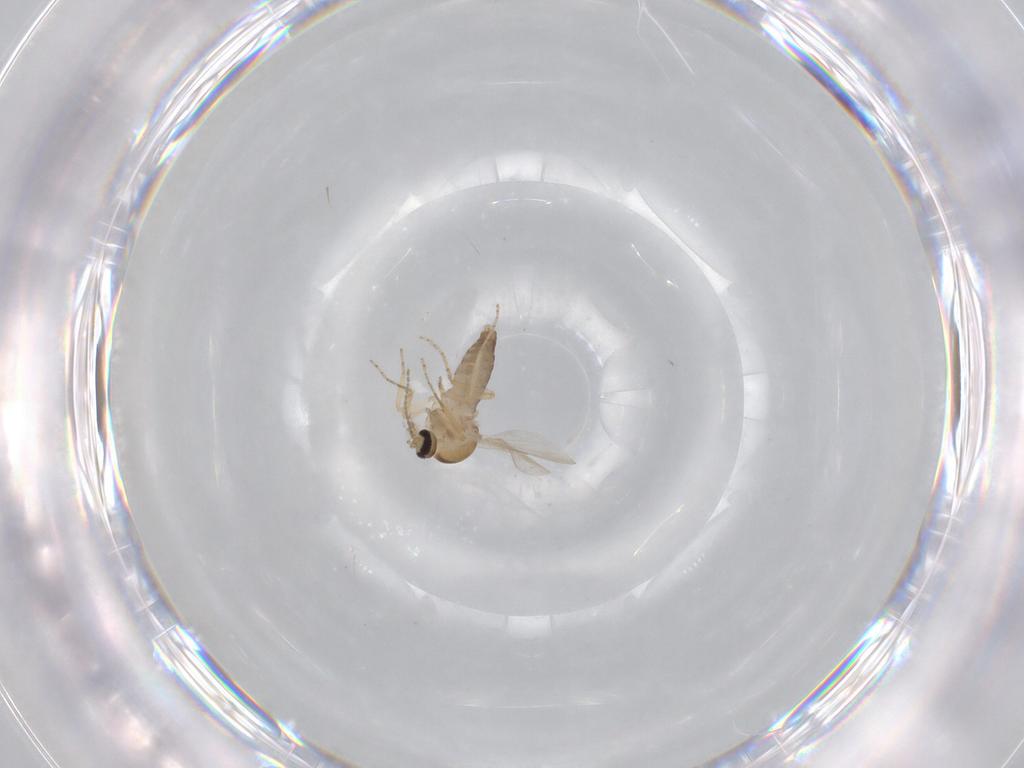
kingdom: Animalia
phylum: Arthropoda
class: Insecta
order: Diptera
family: Ceratopogonidae
